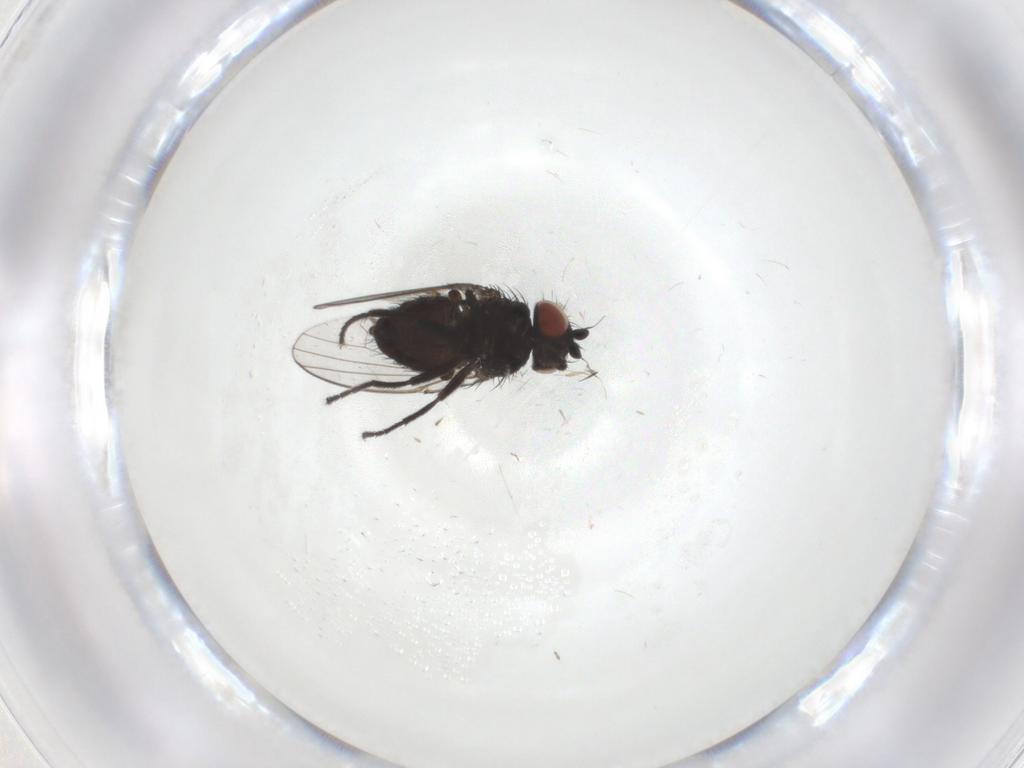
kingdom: Animalia
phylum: Arthropoda
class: Insecta
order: Diptera
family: Milichiidae
